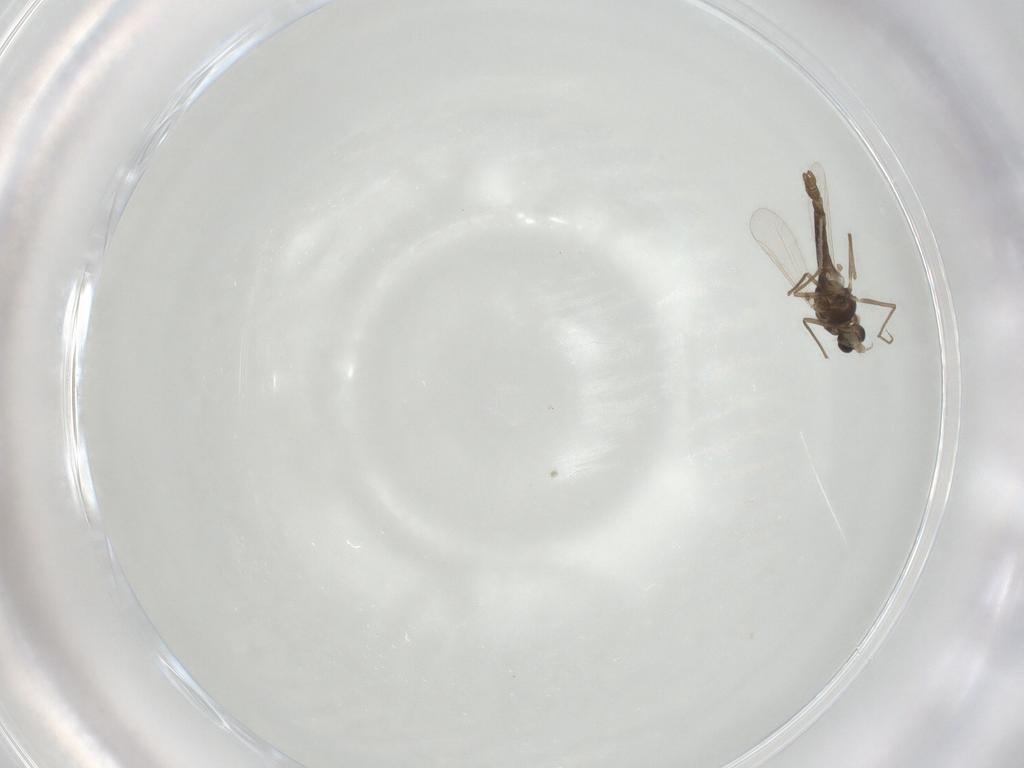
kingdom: Animalia
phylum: Arthropoda
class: Insecta
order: Diptera
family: Chironomidae
